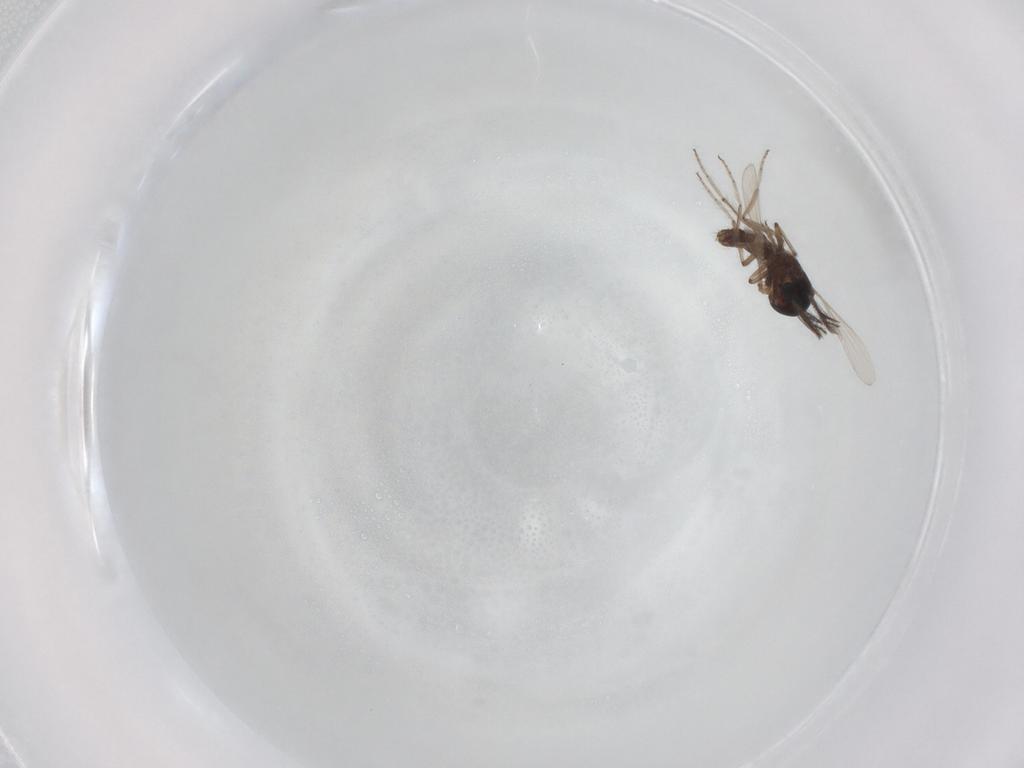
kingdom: Animalia
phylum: Arthropoda
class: Insecta
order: Diptera
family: Ceratopogonidae
